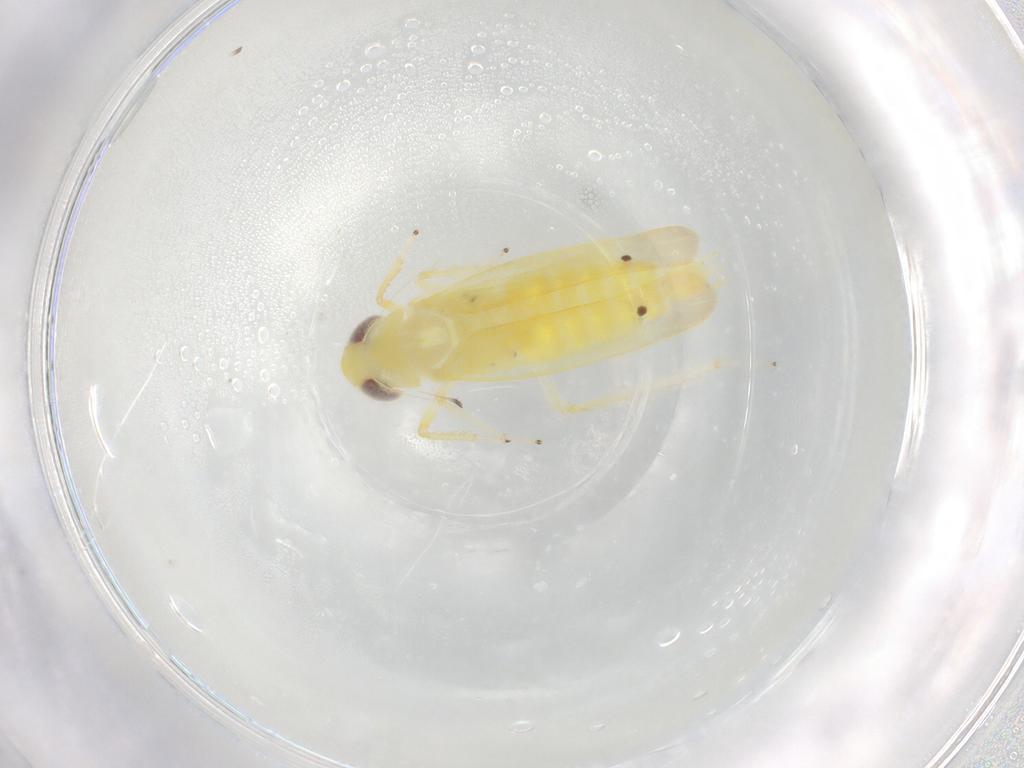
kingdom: Animalia
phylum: Arthropoda
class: Insecta
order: Hemiptera
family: Cicadellidae
